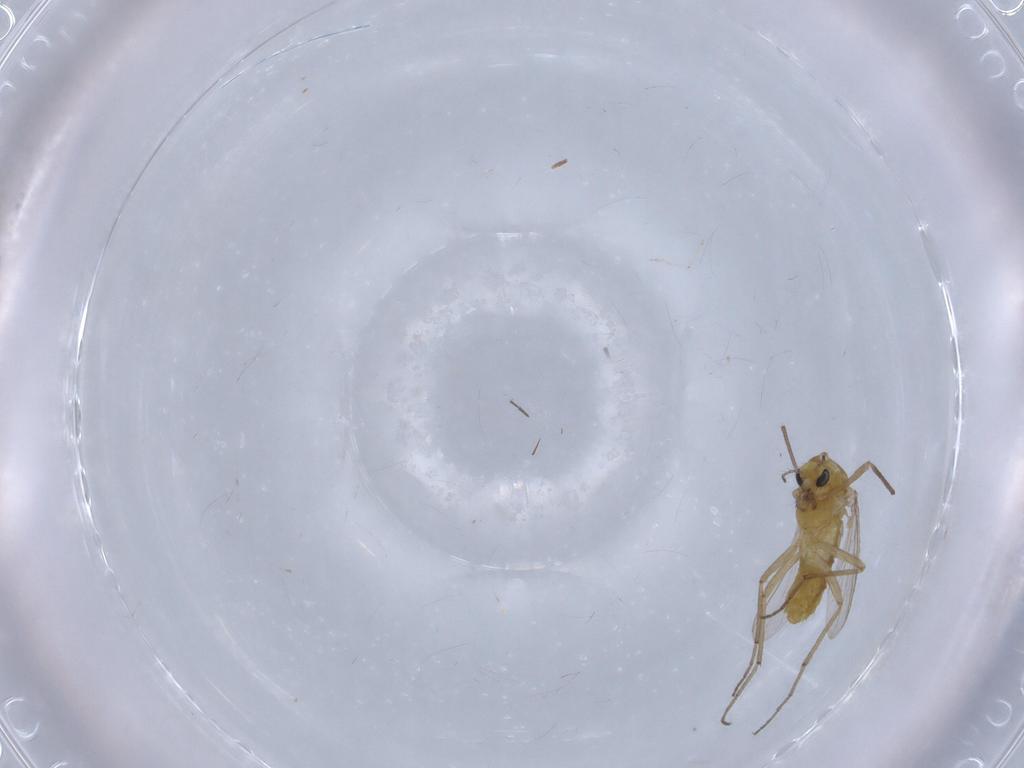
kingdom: Animalia
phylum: Arthropoda
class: Insecta
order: Diptera
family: Chironomidae
